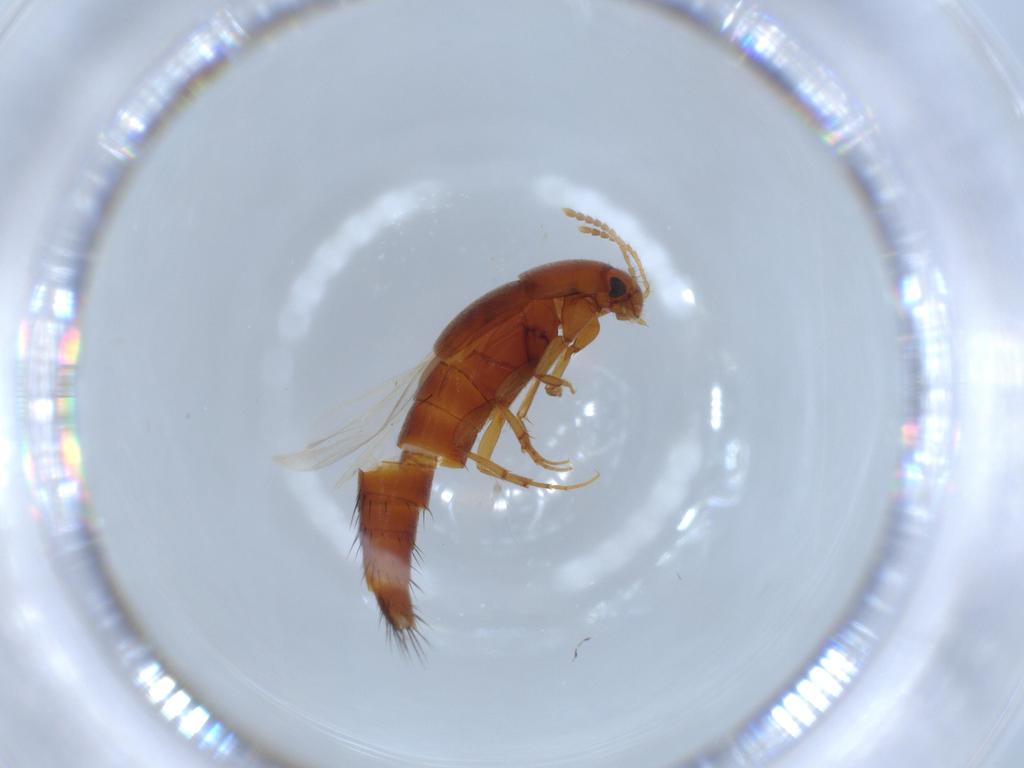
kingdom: Animalia
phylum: Arthropoda
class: Insecta
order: Coleoptera
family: Staphylinidae
